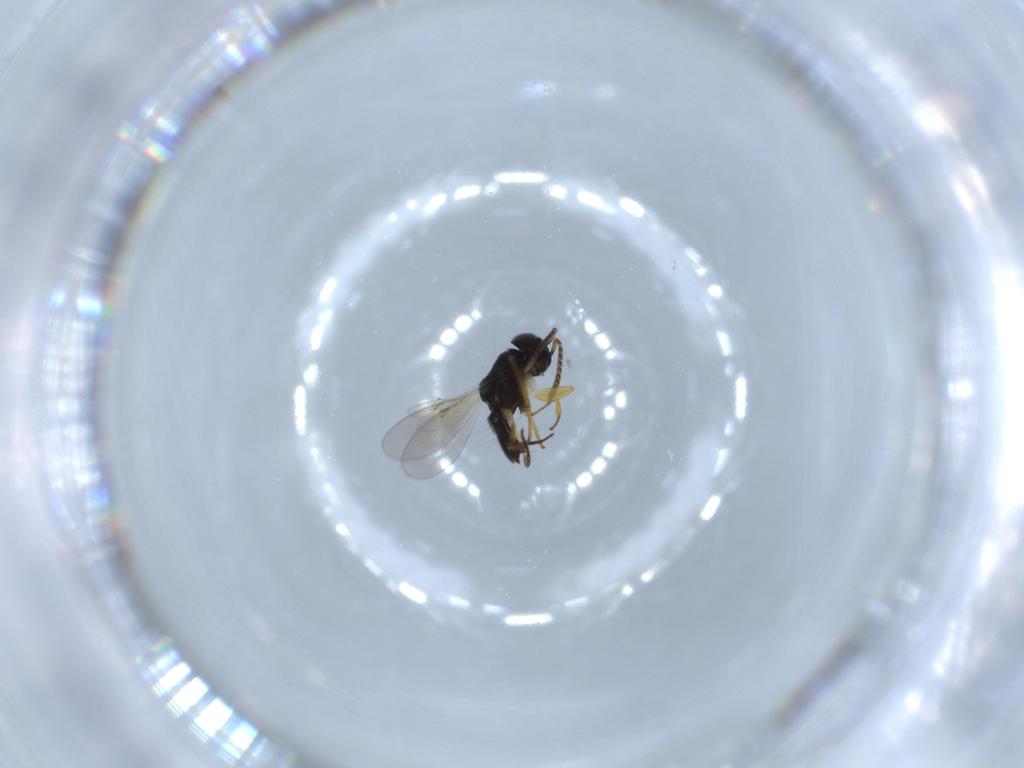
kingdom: Animalia
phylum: Arthropoda
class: Insecta
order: Hymenoptera
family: Encyrtidae
